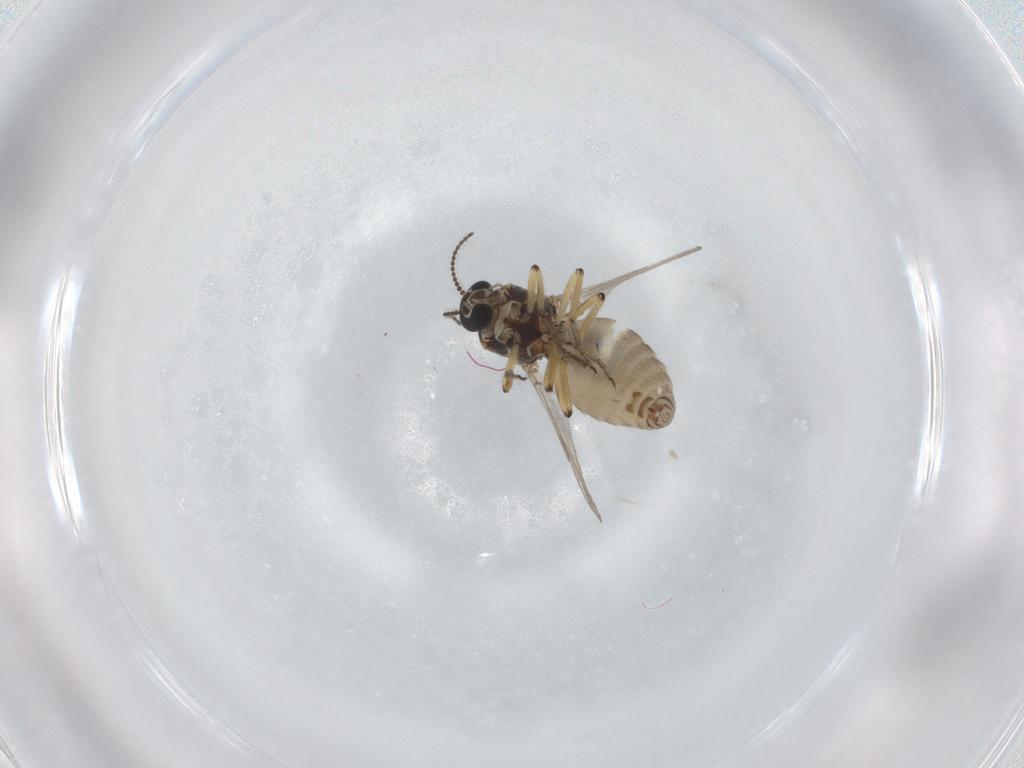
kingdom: Animalia
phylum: Arthropoda
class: Insecta
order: Diptera
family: Ceratopogonidae
